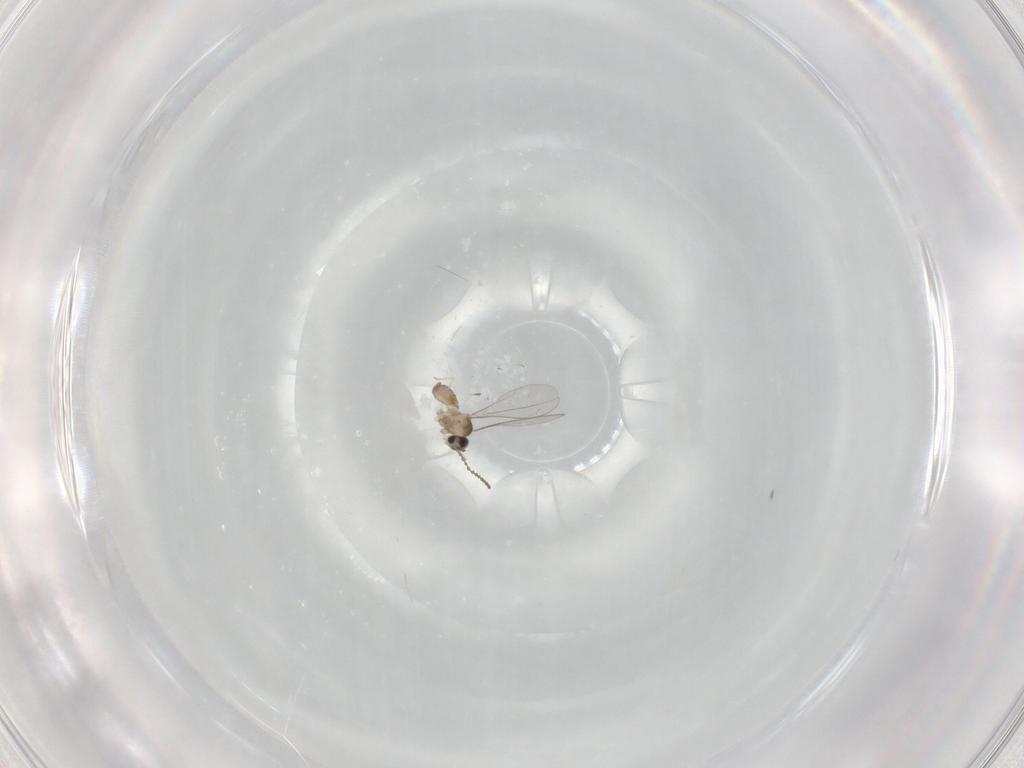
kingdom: Animalia
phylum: Arthropoda
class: Insecta
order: Diptera
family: Cecidomyiidae
